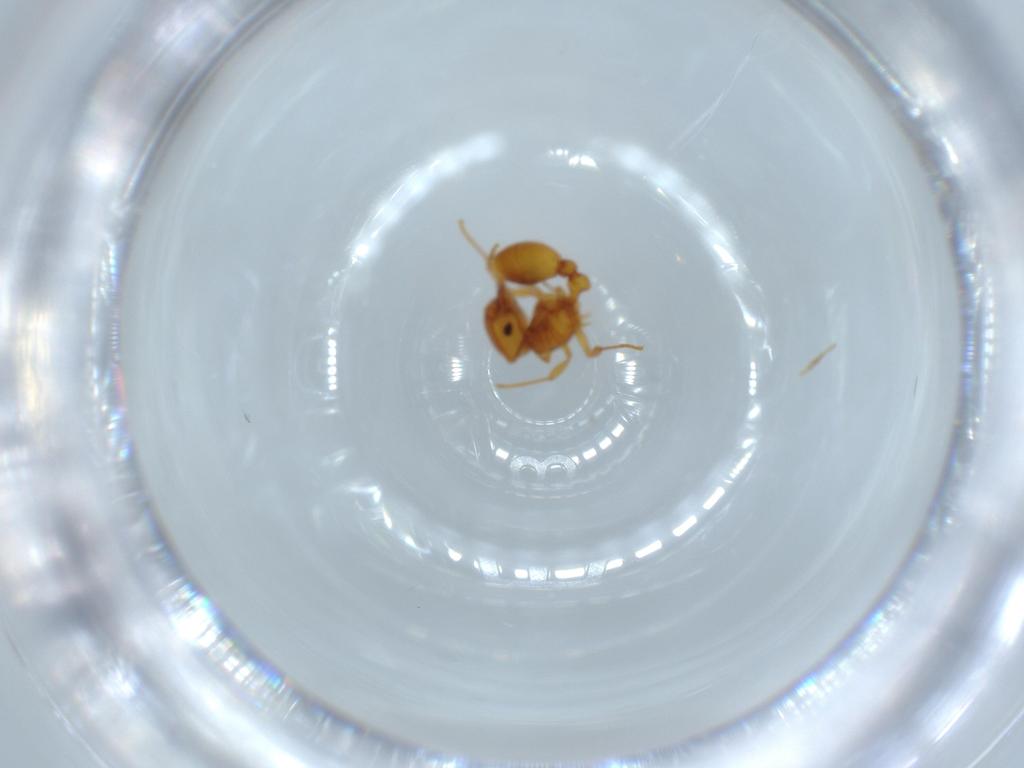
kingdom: Animalia
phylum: Arthropoda
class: Insecta
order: Hymenoptera
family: Formicidae
